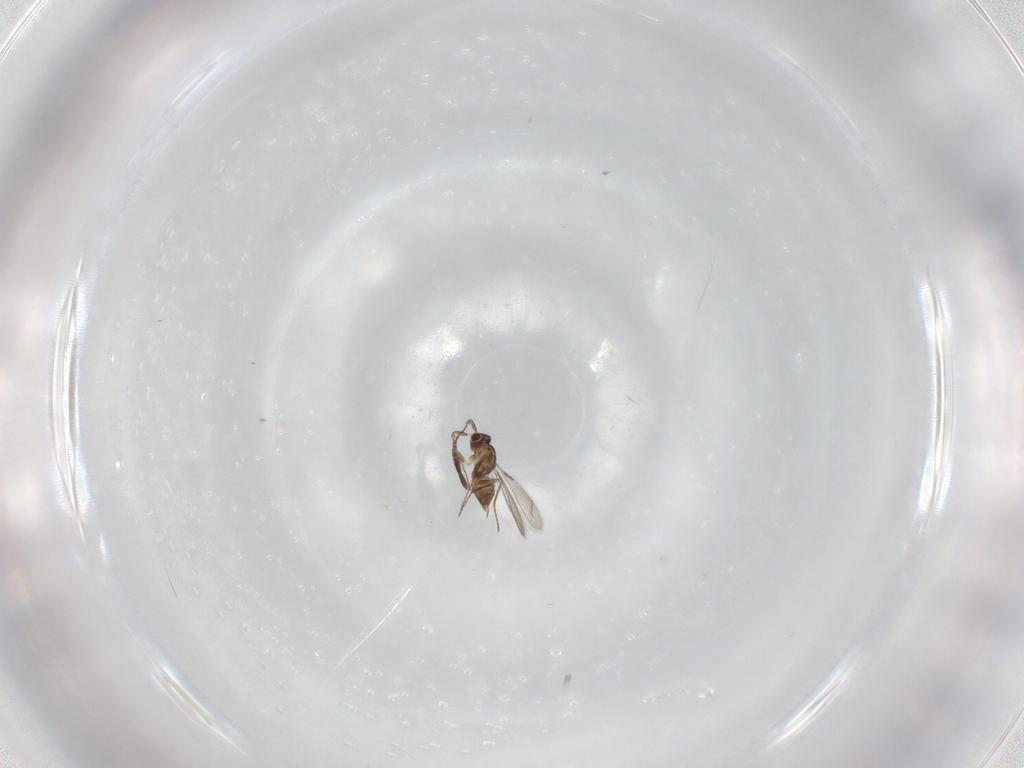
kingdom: Animalia
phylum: Arthropoda
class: Insecta
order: Hymenoptera
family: Mymaridae
